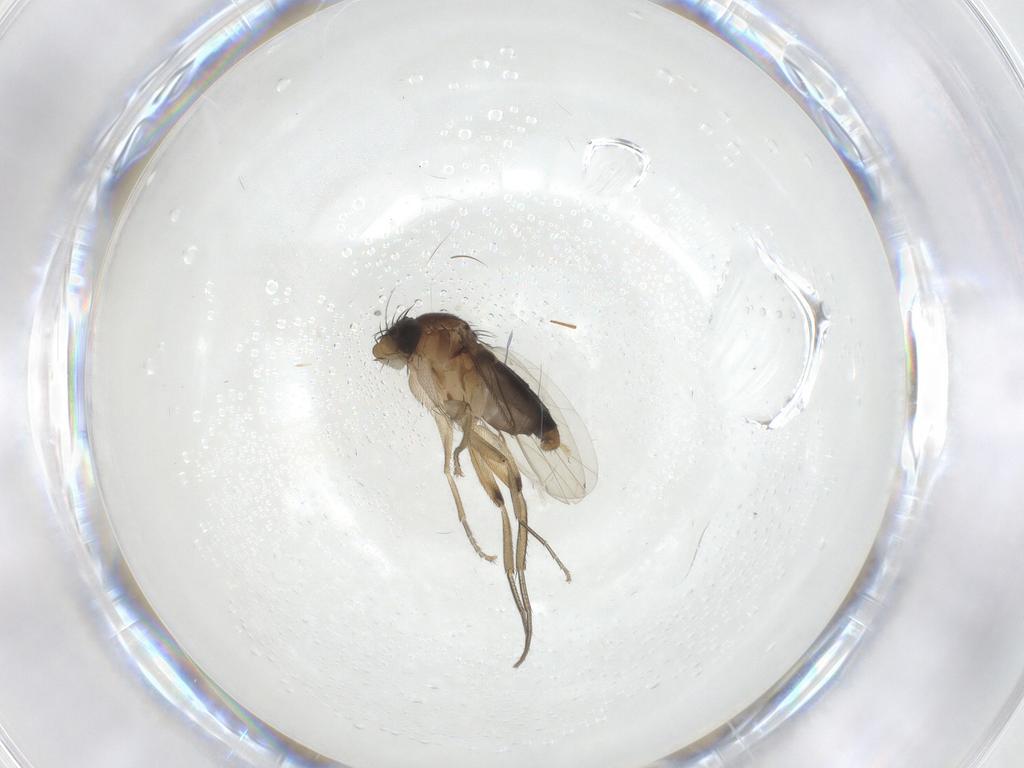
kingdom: Animalia
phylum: Arthropoda
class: Insecta
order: Diptera
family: Phoridae
